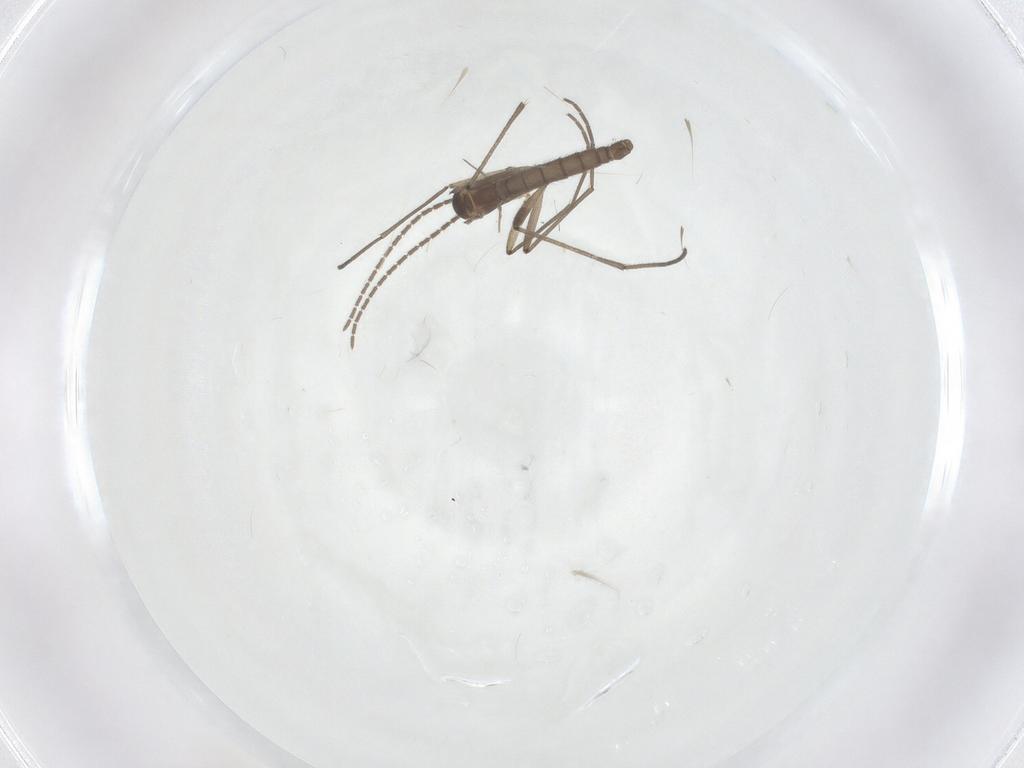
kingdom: Animalia
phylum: Arthropoda
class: Insecta
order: Diptera
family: Sciaridae
